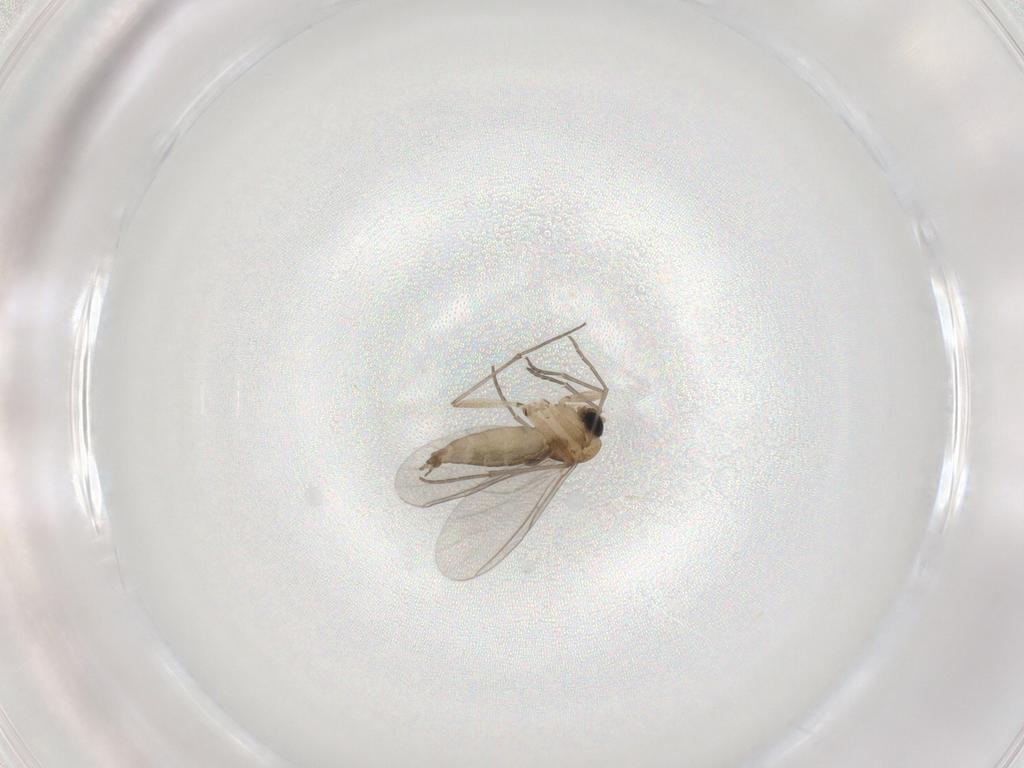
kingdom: Animalia
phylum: Arthropoda
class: Insecta
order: Diptera
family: Sciaridae
